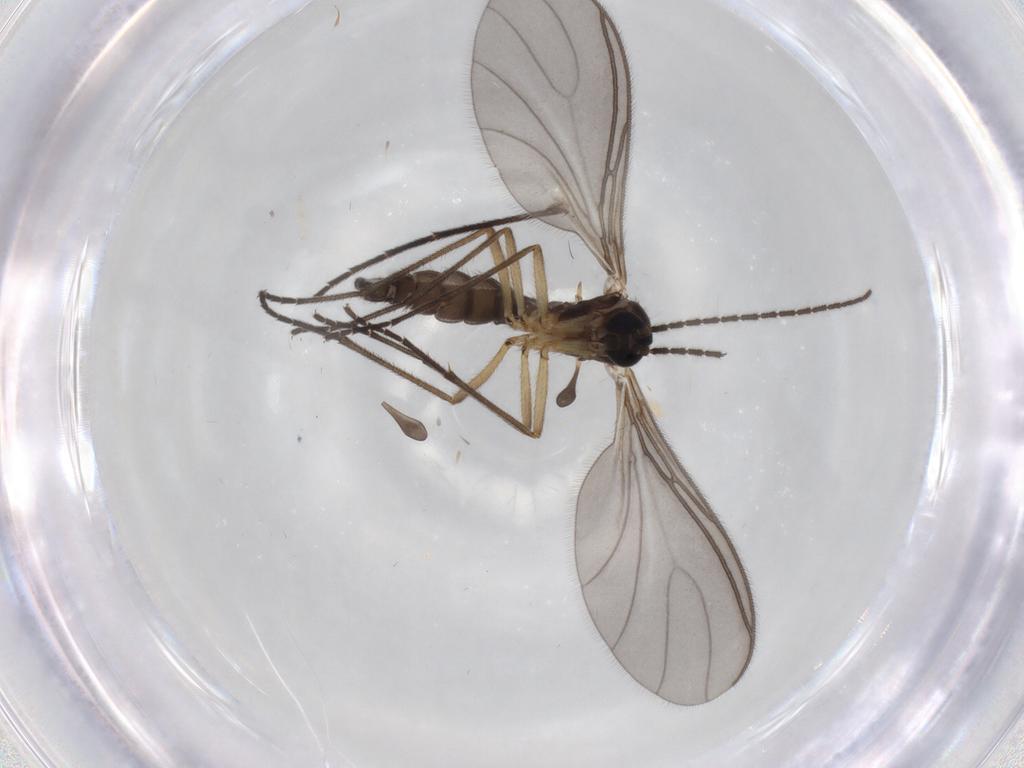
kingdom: Animalia
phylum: Arthropoda
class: Insecta
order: Diptera
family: Sciaridae
